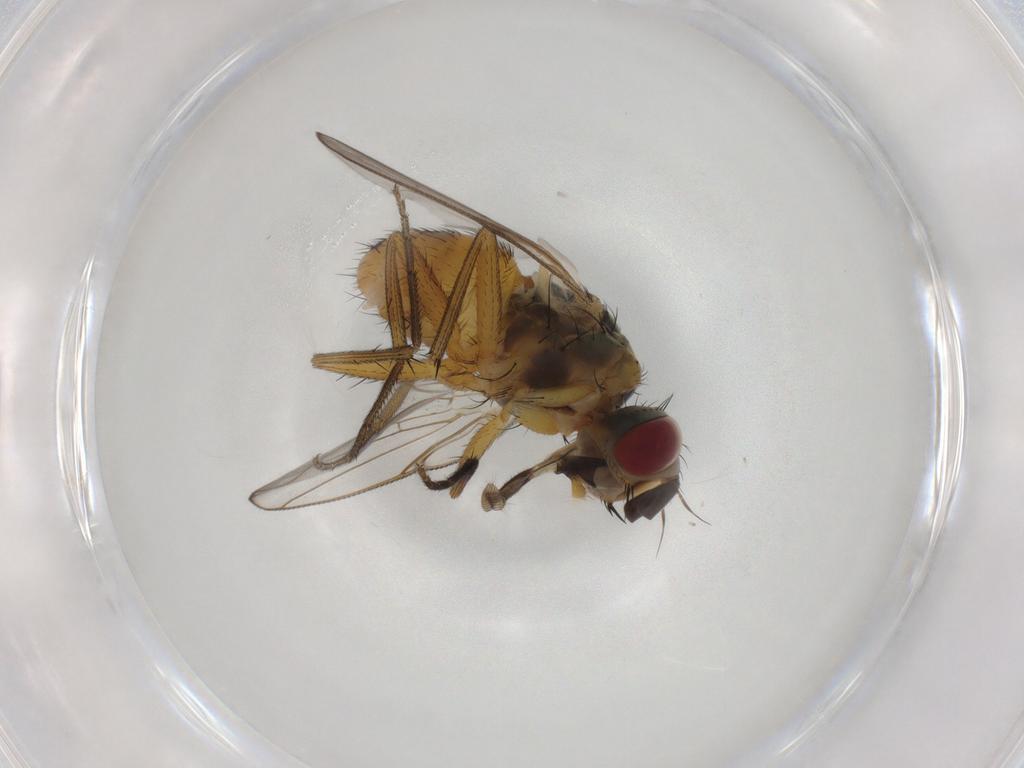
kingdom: Animalia
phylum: Arthropoda
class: Insecta
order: Diptera
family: Muscidae
